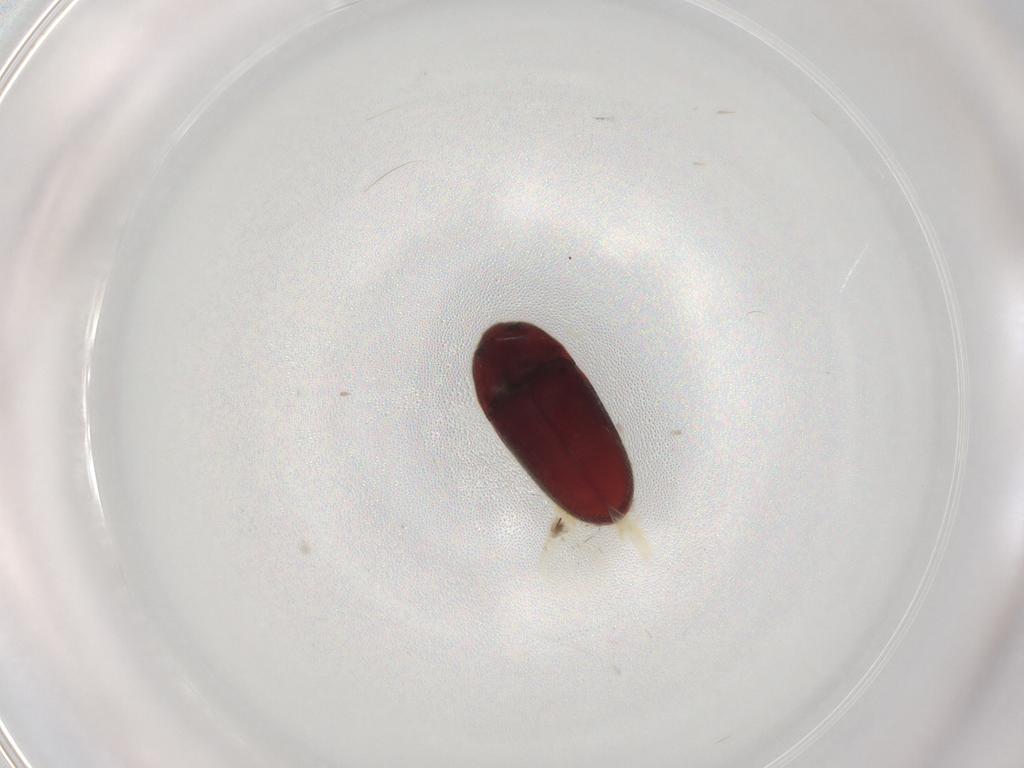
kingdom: Animalia
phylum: Arthropoda
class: Insecta
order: Coleoptera
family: Throscidae
